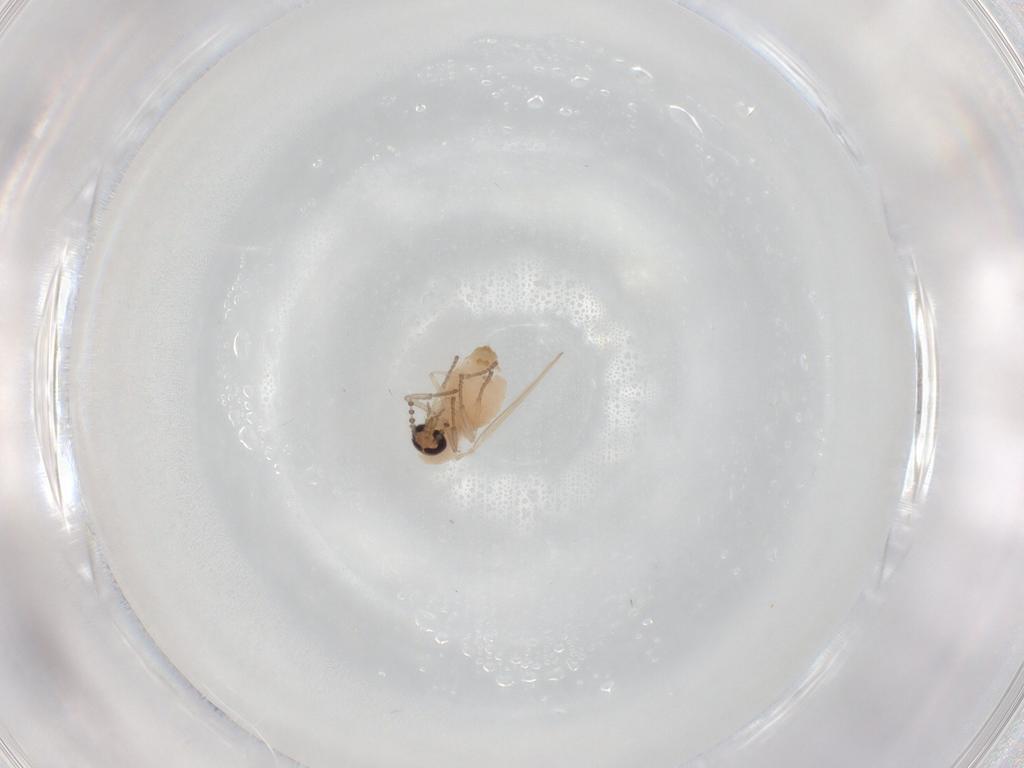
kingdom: Animalia
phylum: Arthropoda
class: Insecta
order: Diptera
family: Psychodidae
